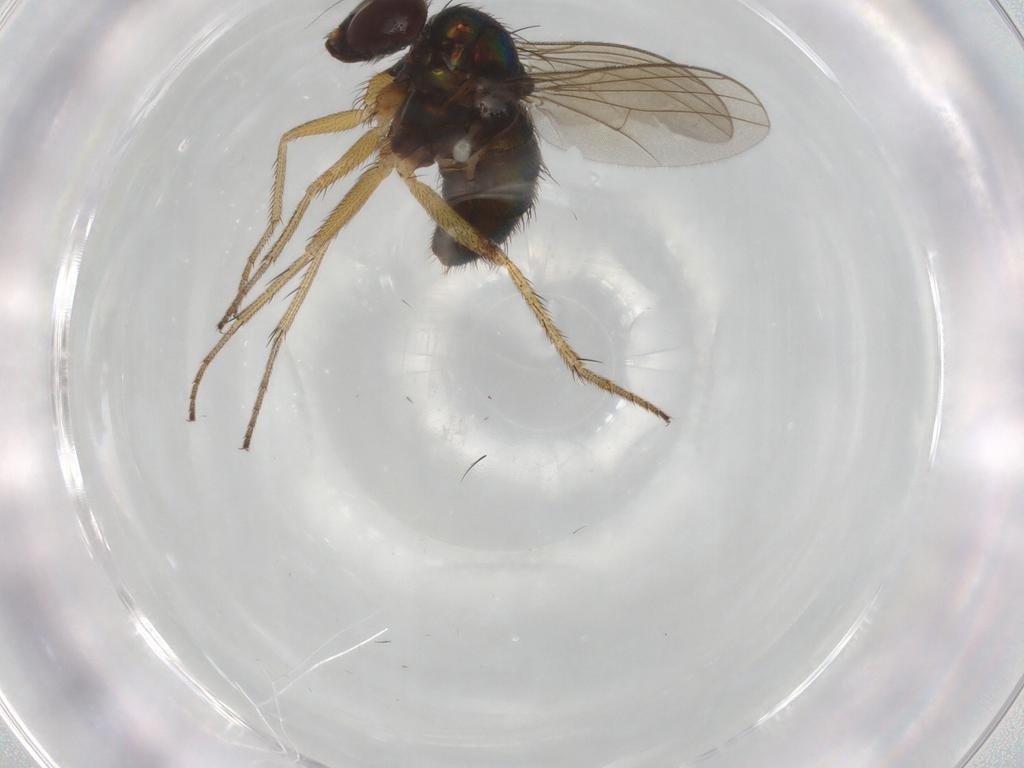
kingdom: Animalia
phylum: Arthropoda
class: Insecta
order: Diptera
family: Dolichopodidae
